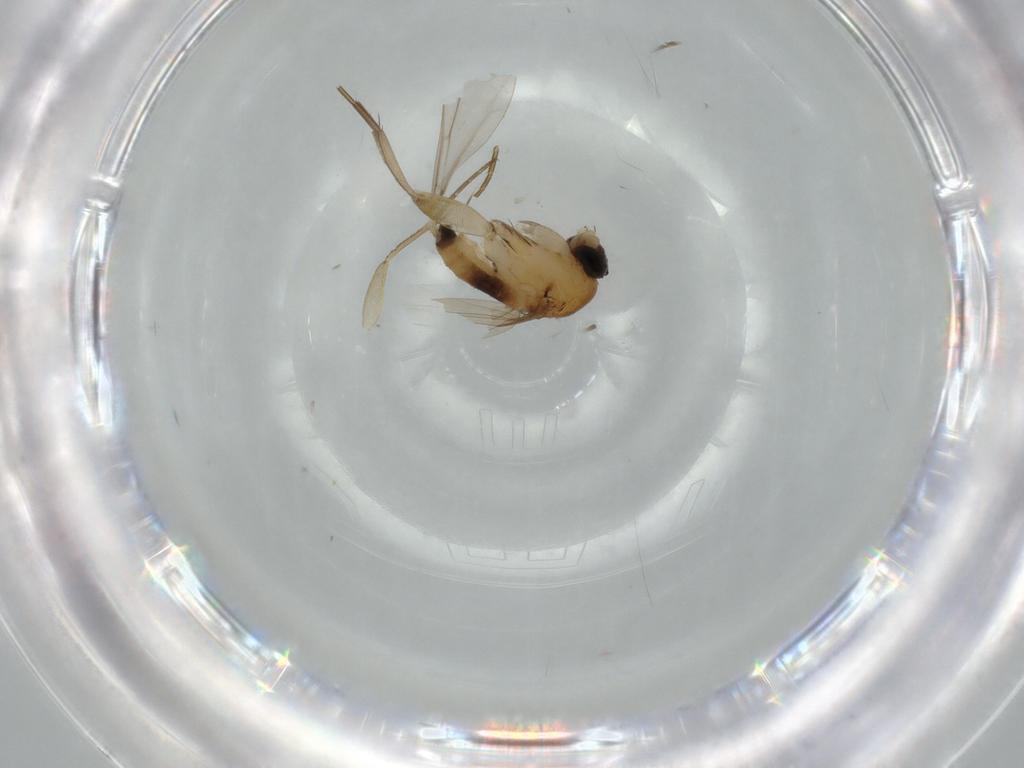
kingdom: Animalia
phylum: Arthropoda
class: Insecta
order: Diptera
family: Phoridae
